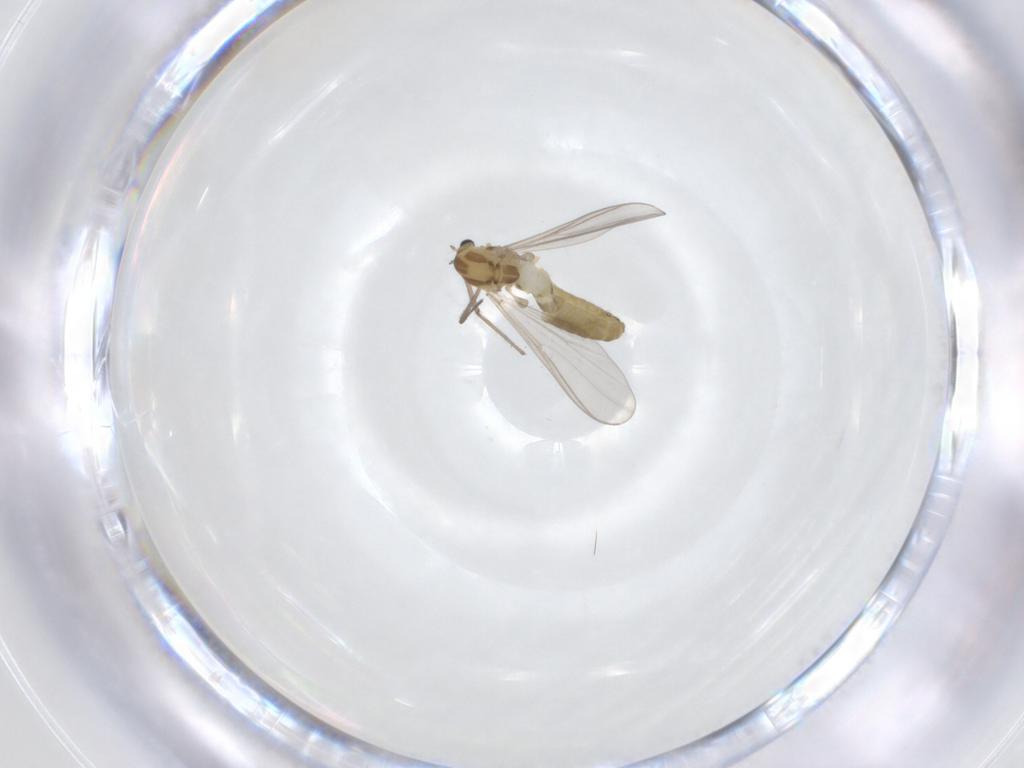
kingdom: Animalia
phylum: Arthropoda
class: Insecta
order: Diptera
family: Chironomidae
